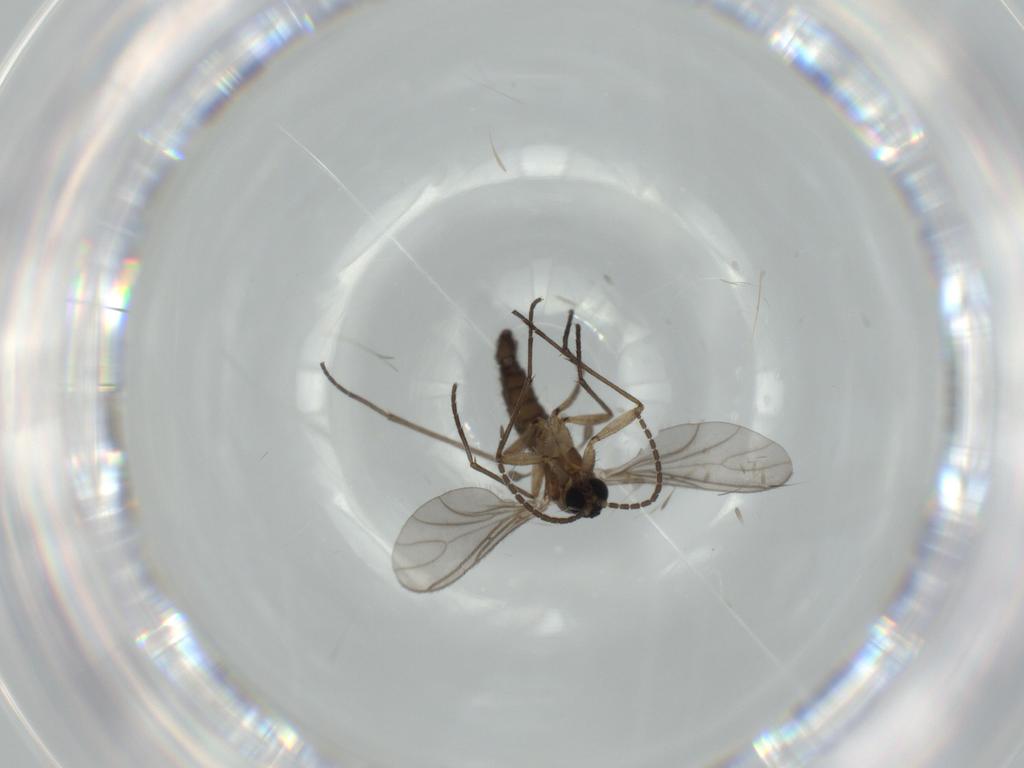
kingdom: Animalia
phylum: Arthropoda
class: Insecta
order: Diptera
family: Sciaridae
